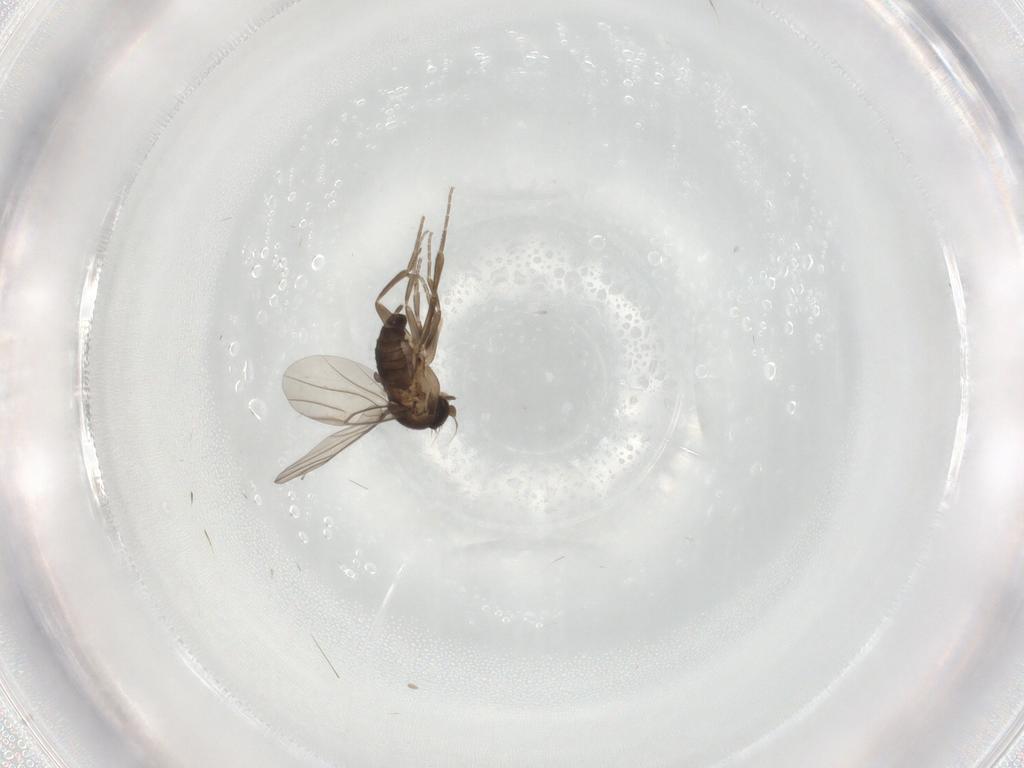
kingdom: Animalia
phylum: Arthropoda
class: Insecta
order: Diptera
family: Phoridae
